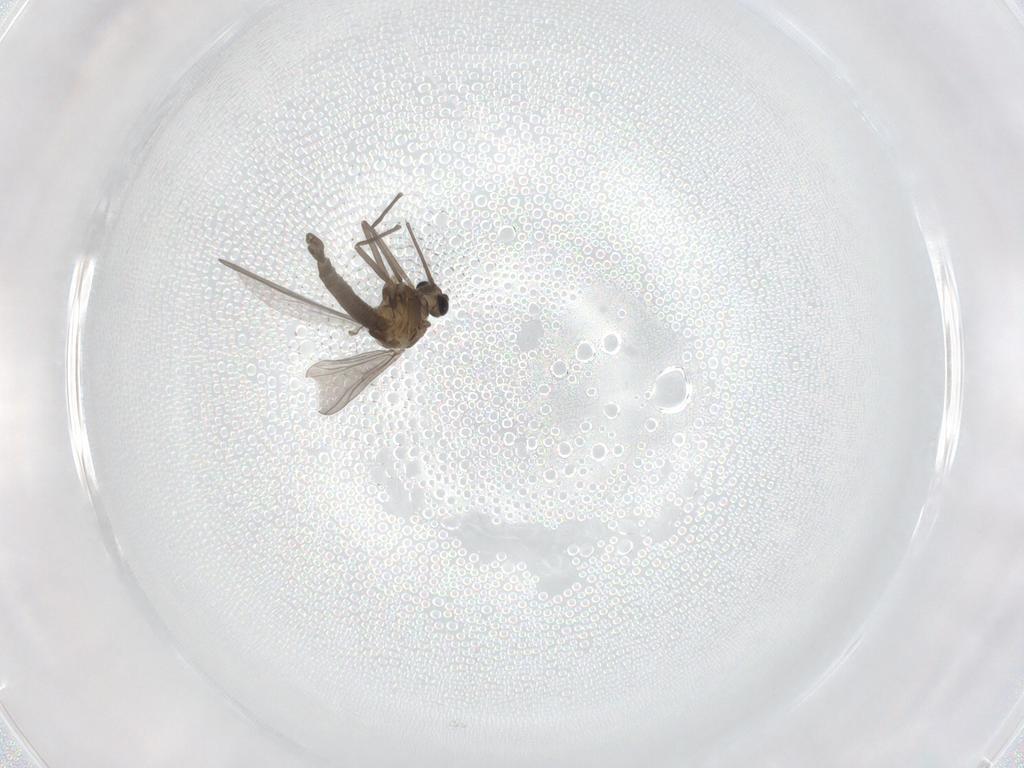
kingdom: Animalia
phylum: Arthropoda
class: Insecta
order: Diptera
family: Chironomidae
